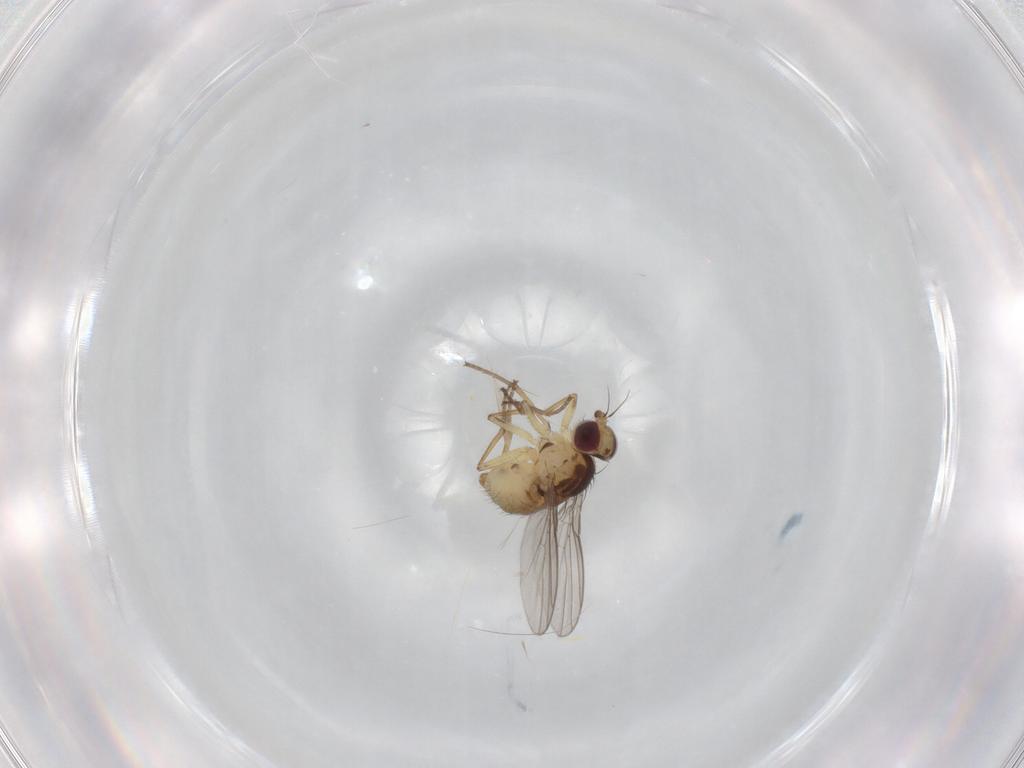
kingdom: Animalia
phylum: Arthropoda
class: Insecta
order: Diptera
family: Agromyzidae
